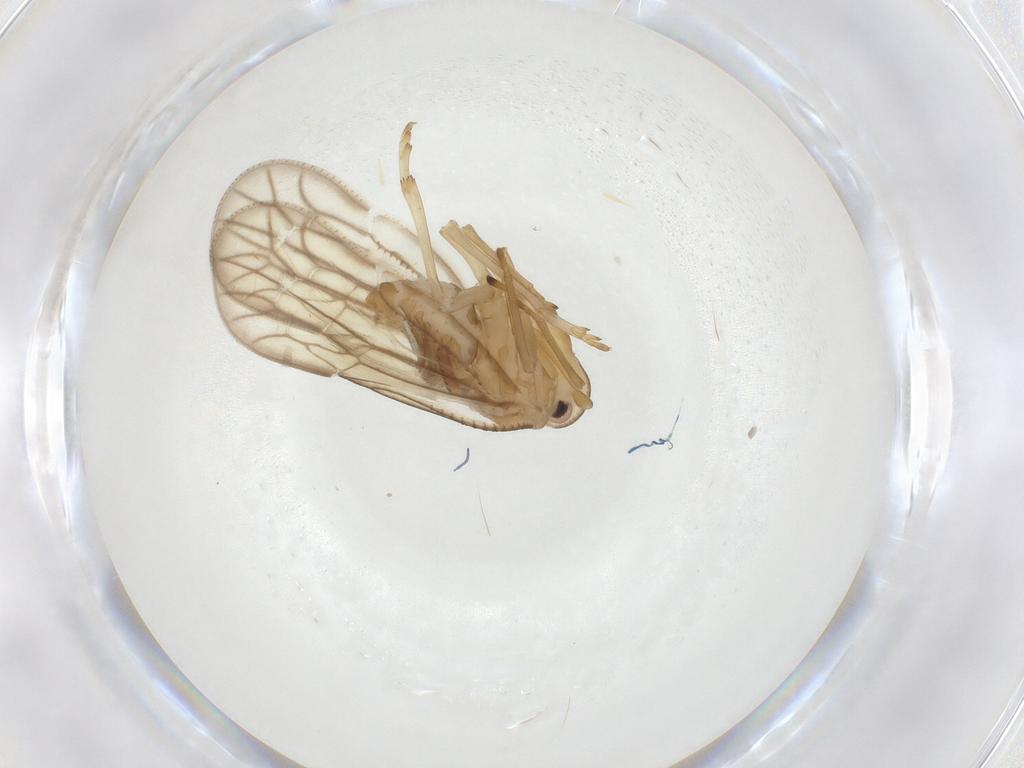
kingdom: Animalia
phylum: Arthropoda
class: Insecta
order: Hemiptera
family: Meenoplidae
